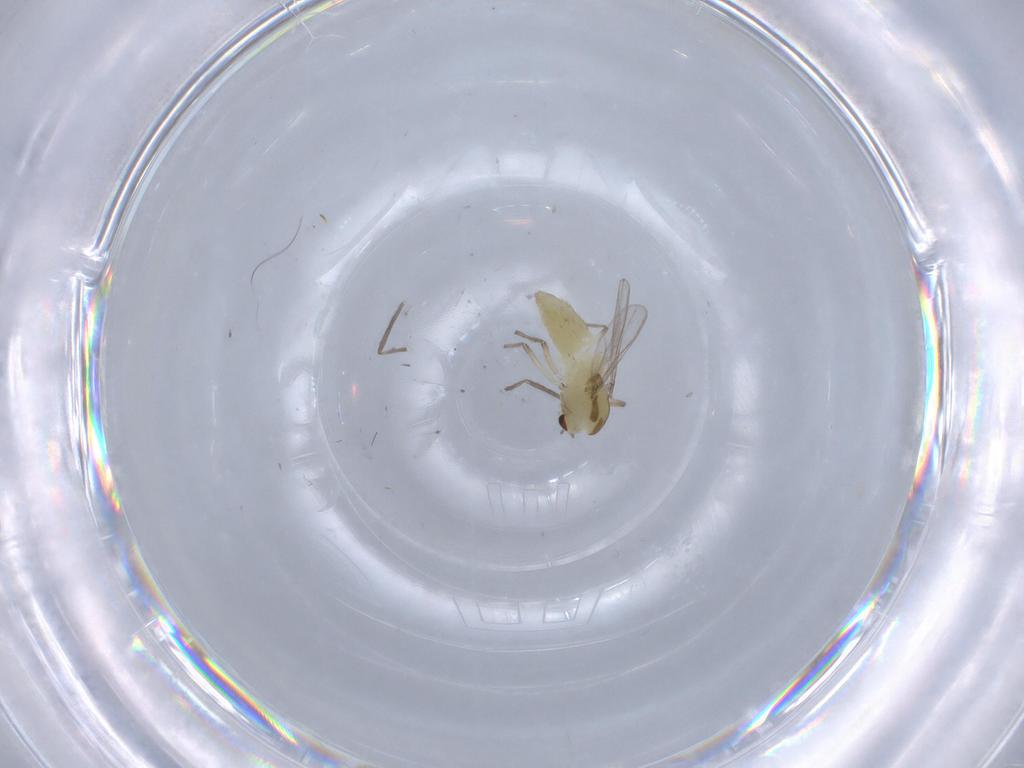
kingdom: Animalia
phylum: Arthropoda
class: Insecta
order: Diptera
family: Chironomidae
